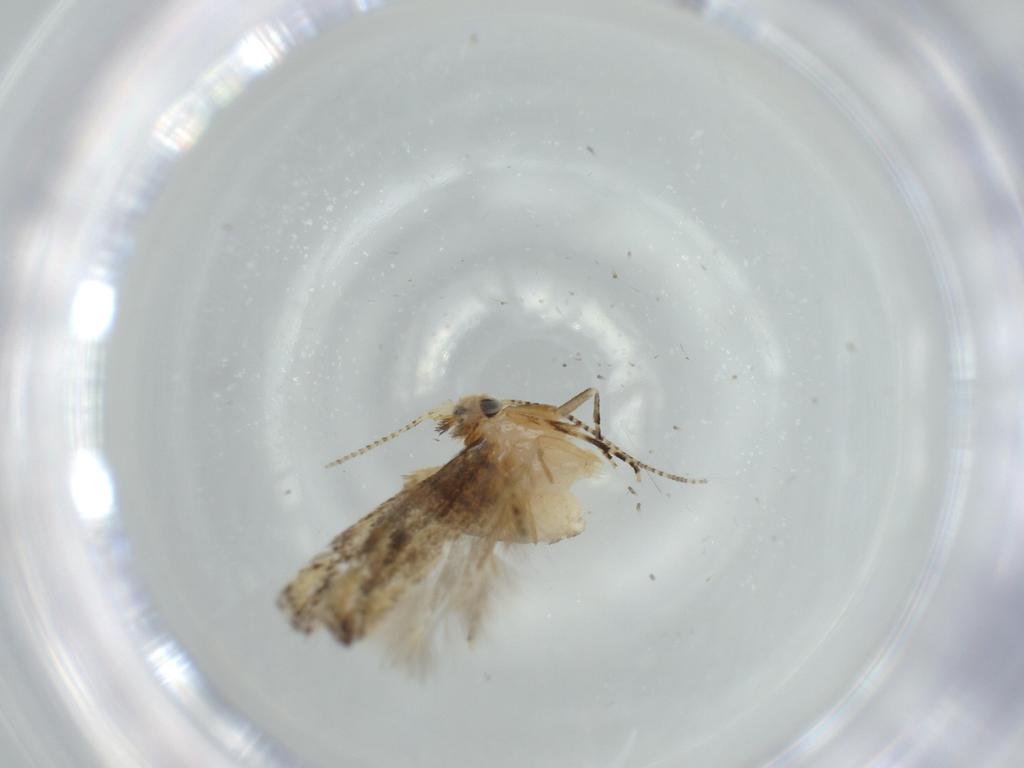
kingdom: Animalia
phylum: Arthropoda
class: Insecta
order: Lepidoptera
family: Bucculatricidae
